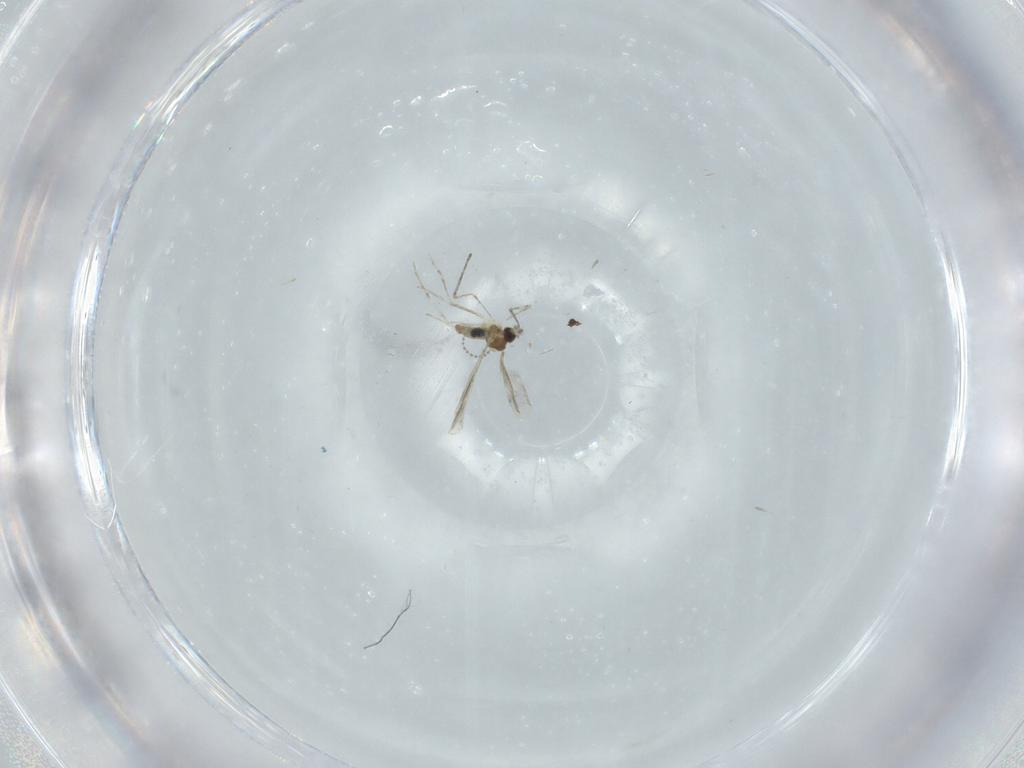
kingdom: Animalia
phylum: Arthropoda
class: Insecta
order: Diptera
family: Cecidomyiidae
